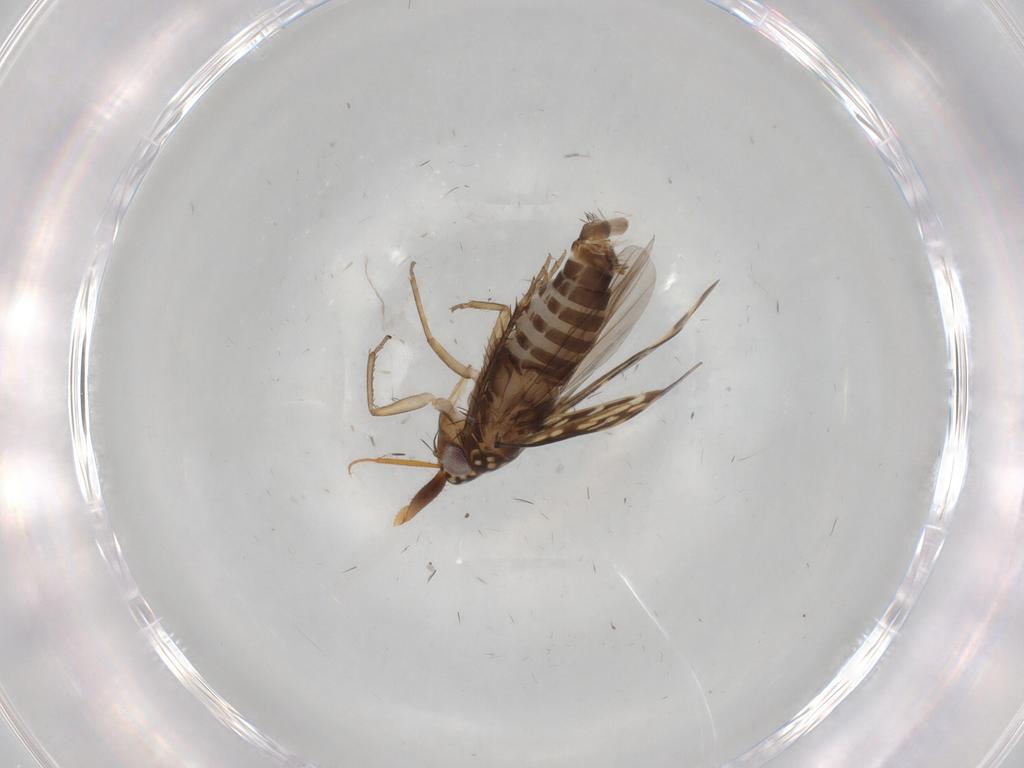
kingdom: Animalia
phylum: Arthropoda
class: Insecta
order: Hemiptera
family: Cicadellidae
